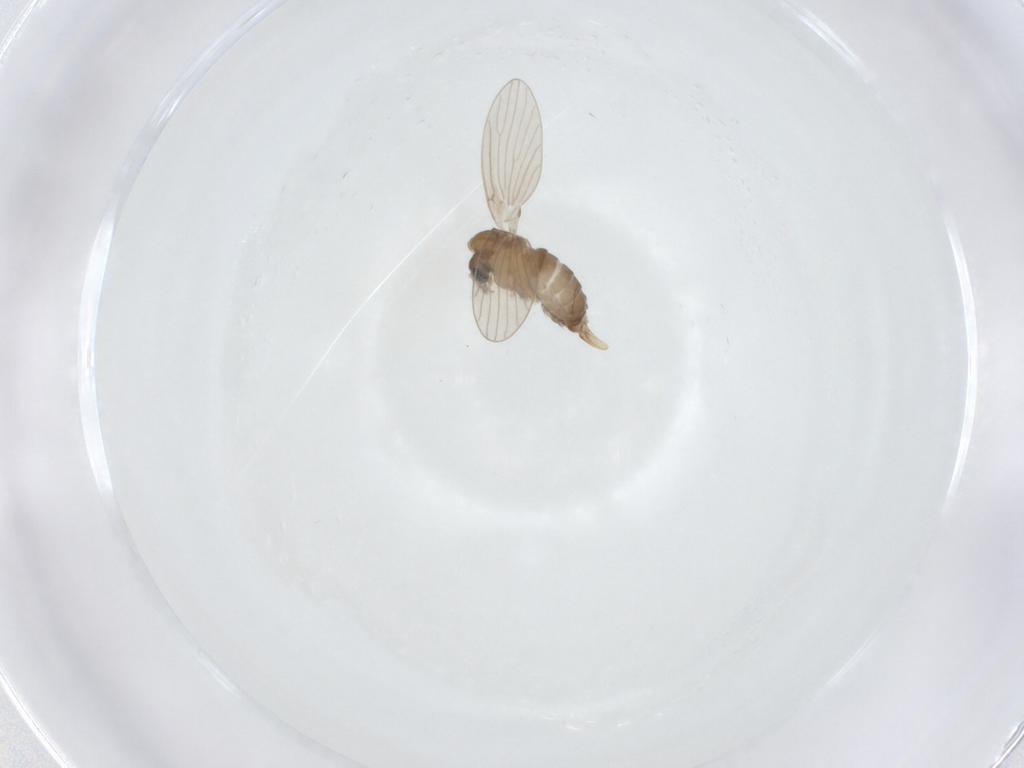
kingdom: Animalia
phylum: Arthropoda
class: Insecta
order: Diptera
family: Psychodidae
